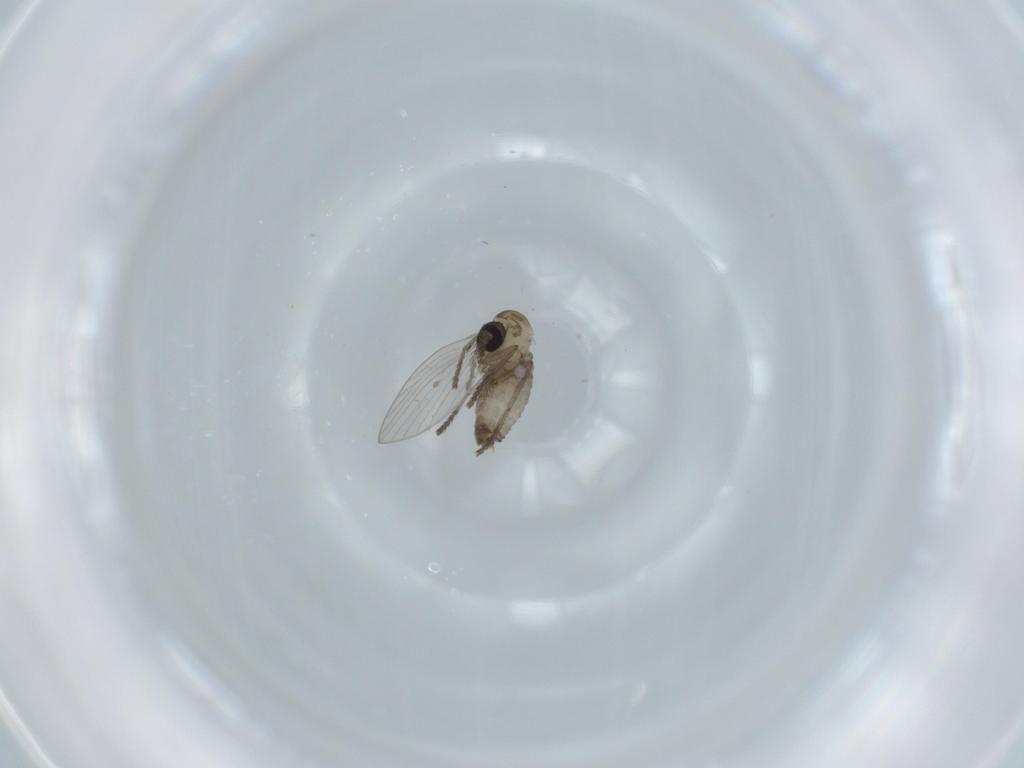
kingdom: Animalia
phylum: Arthropoda
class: Insecta
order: Diptera
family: Psychodidae
